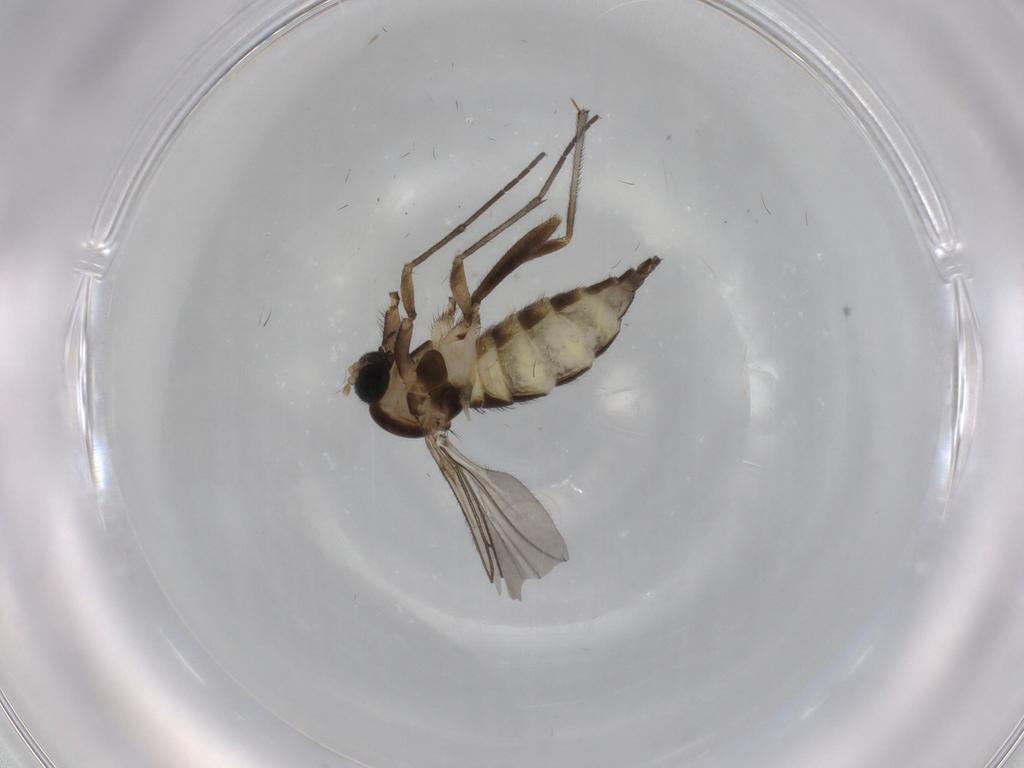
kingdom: Animalia
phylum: Arthropoda
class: Insecta
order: Diptera
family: Sciaridae
